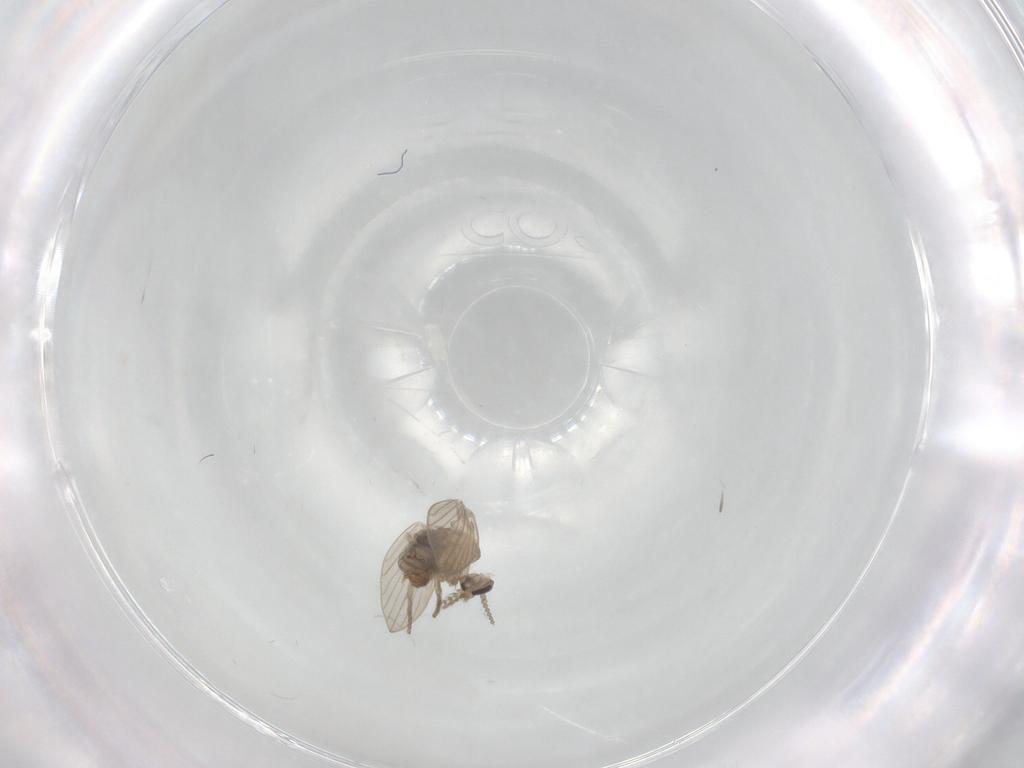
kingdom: Animalia
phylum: Arthropoda
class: Insecta
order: Diptera
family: Psychodidae
